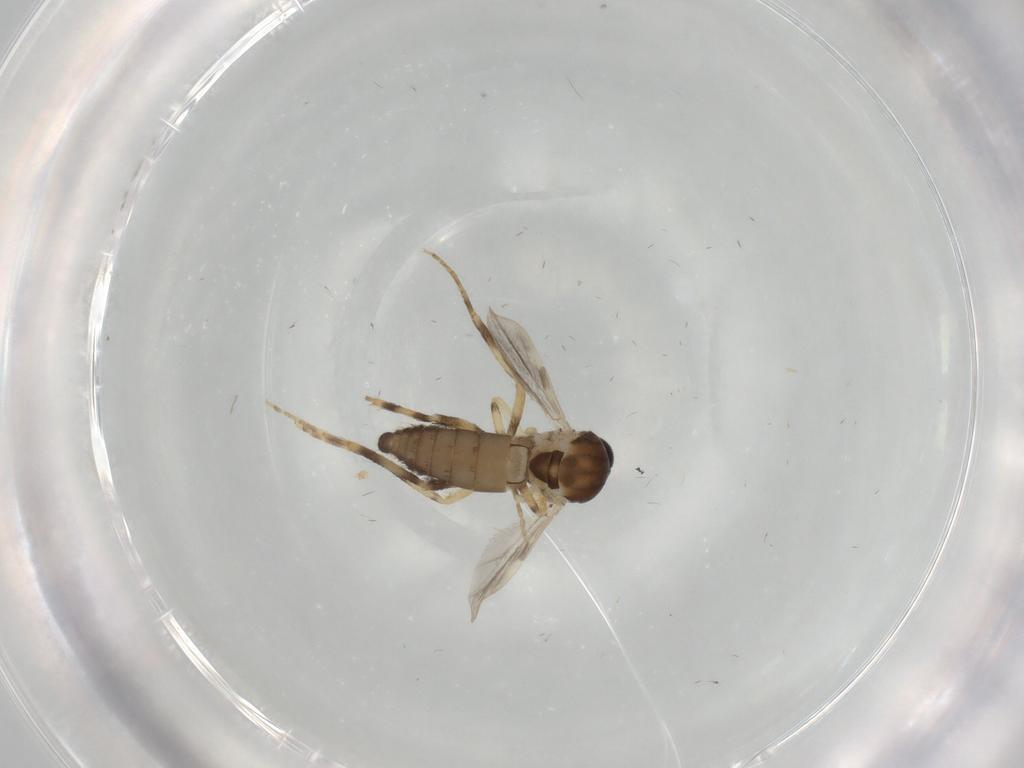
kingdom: Animalia
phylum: Arthropoda
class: Insecta
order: Diptera
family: Ceratopogonidae
